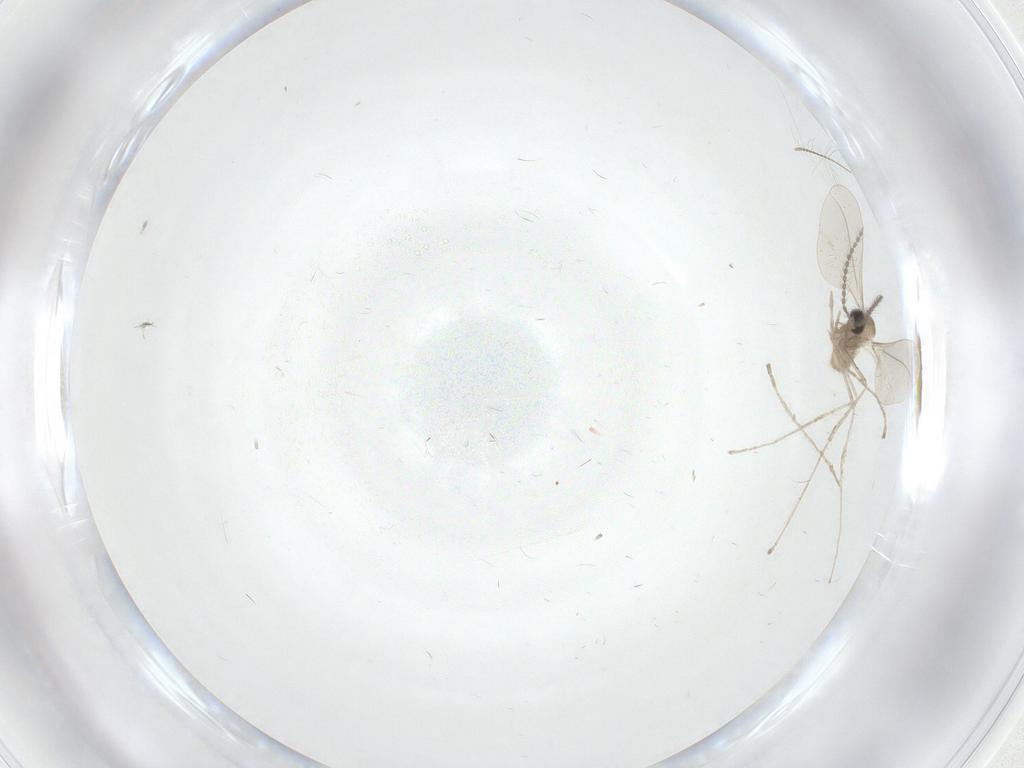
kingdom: Animalia
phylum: Arthropoda
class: Insecta
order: Diptera
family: Cecidomyiidae
